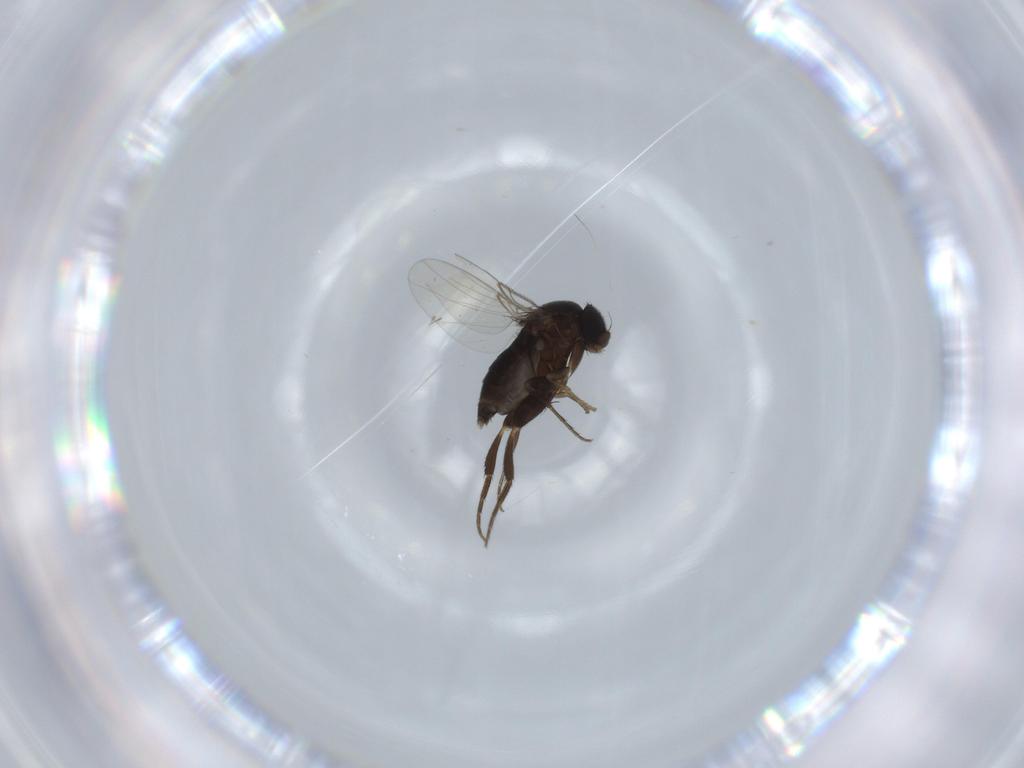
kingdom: Animalia
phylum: Arthropoda
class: Insecta
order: Diptera
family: Phoridae
